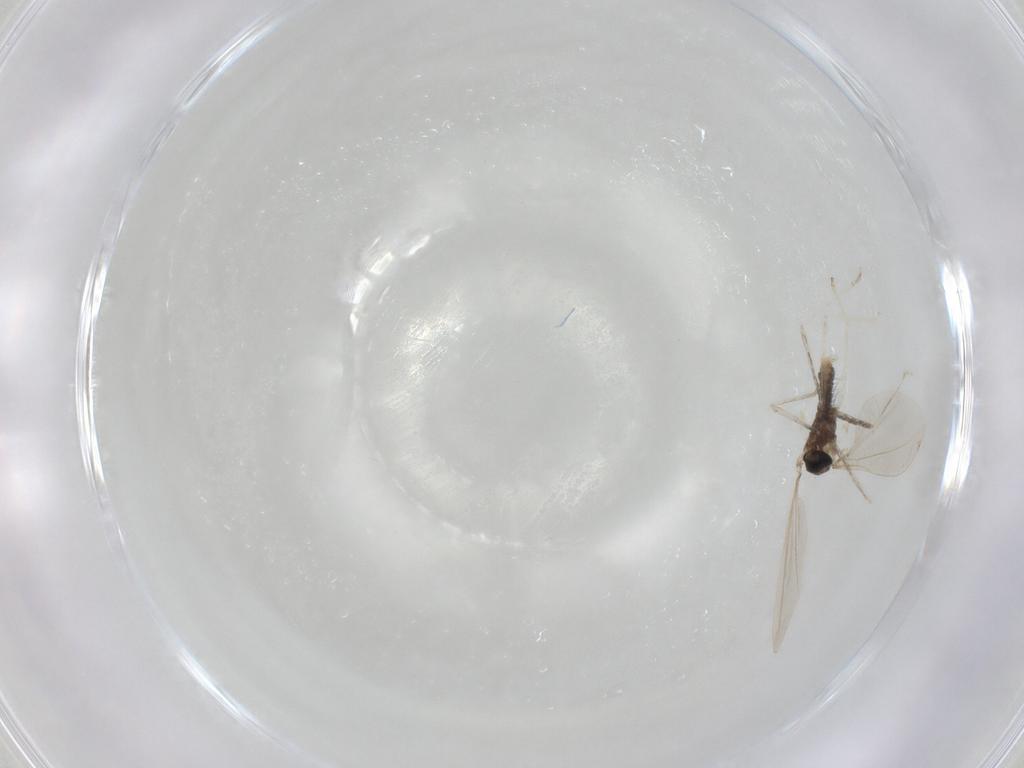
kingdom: Animalia
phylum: Arthropoda
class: Insecta
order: Diptera
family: Cecidomyiidae
